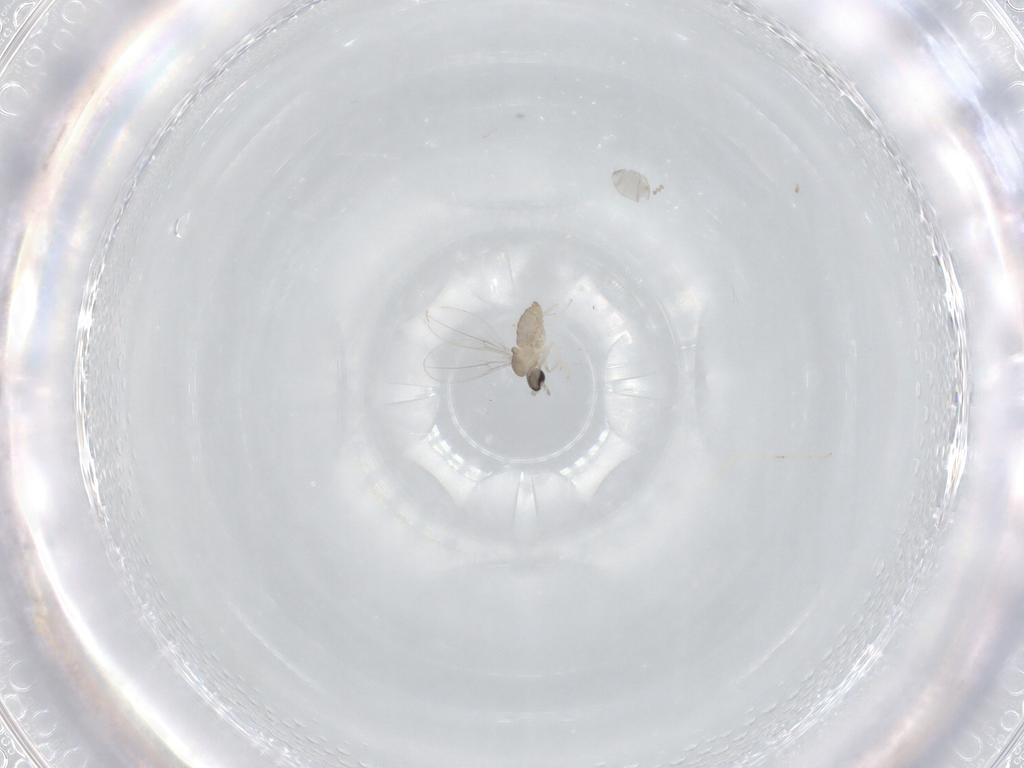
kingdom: Animalia
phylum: Arthropoda
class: Insecta
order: Diptera
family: Cecidomyiidae
